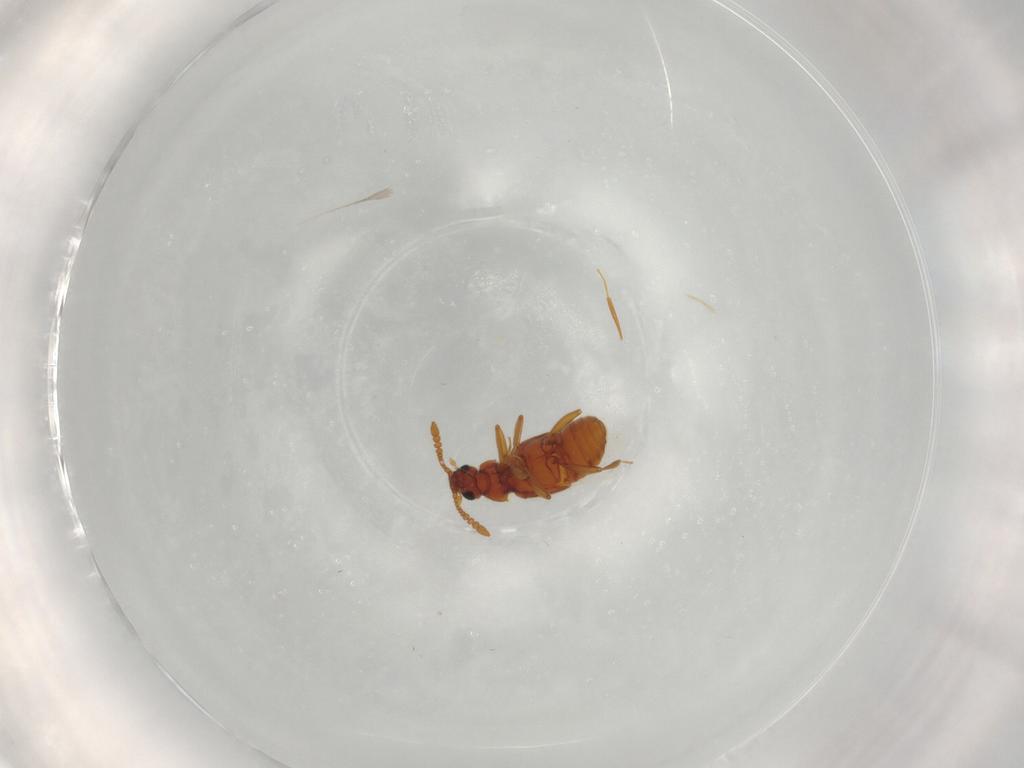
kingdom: Animalia
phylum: Arthropoda
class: Insecta
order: Coleoptera
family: Staphylinidae
